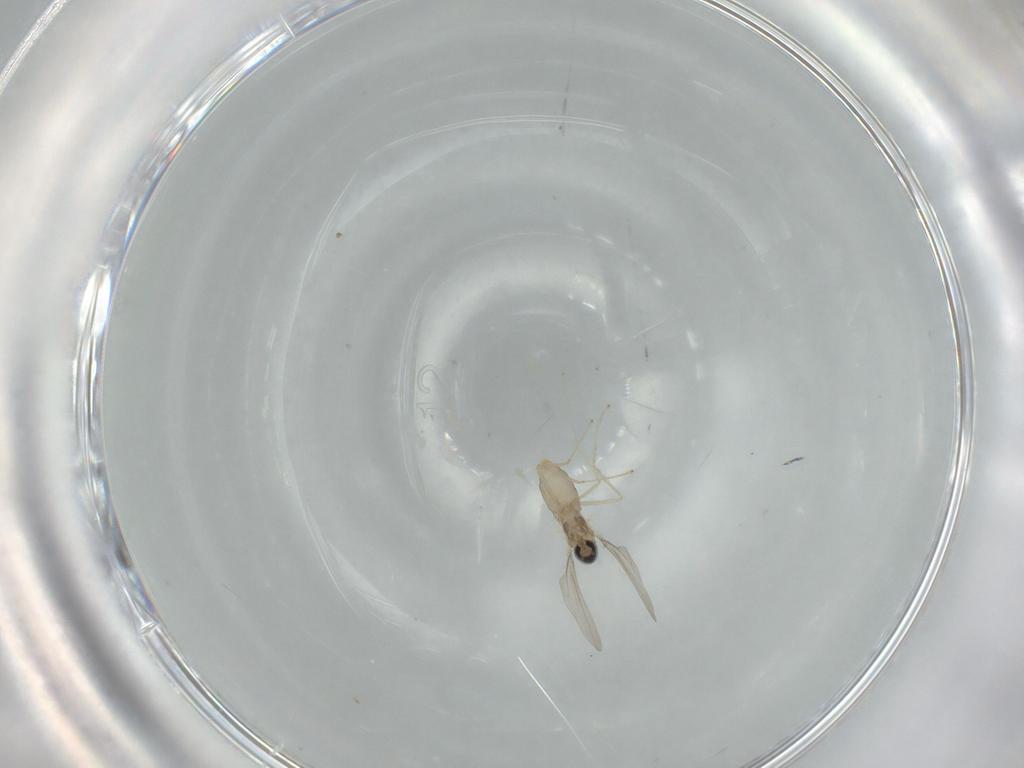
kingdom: Animalia
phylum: Arthropoda
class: Insecta
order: Diptera
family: Cecidomyiidae
